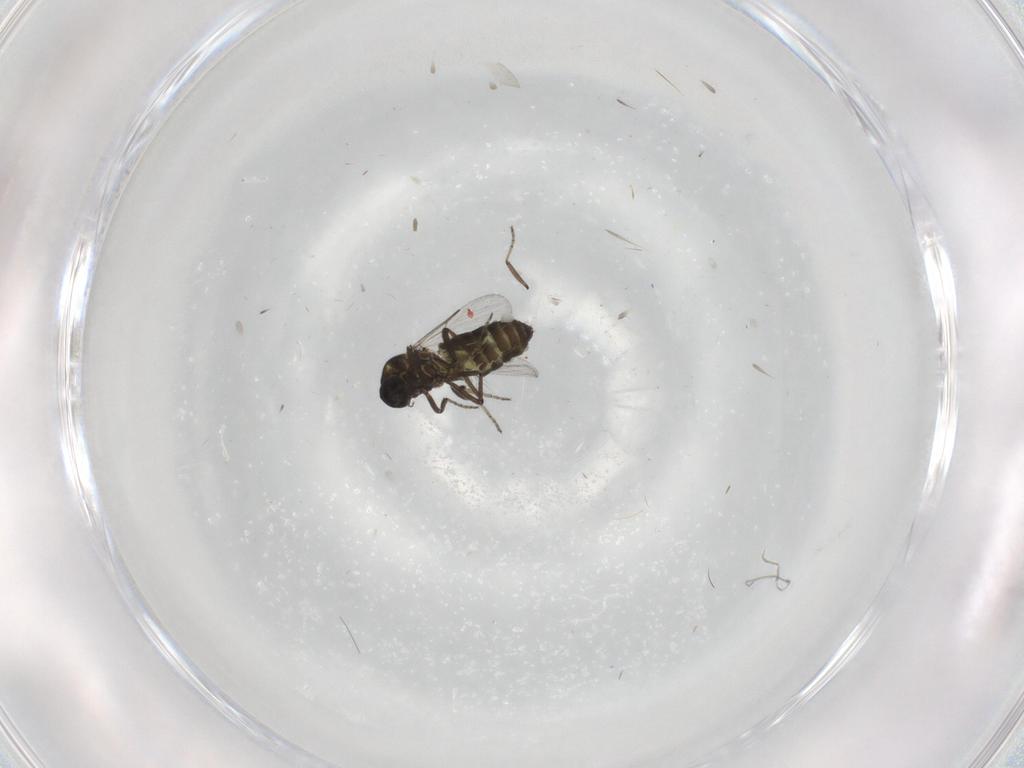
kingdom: Animalia
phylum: Arthropoda
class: Insecta
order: Diptera
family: Ceratopogonidae
